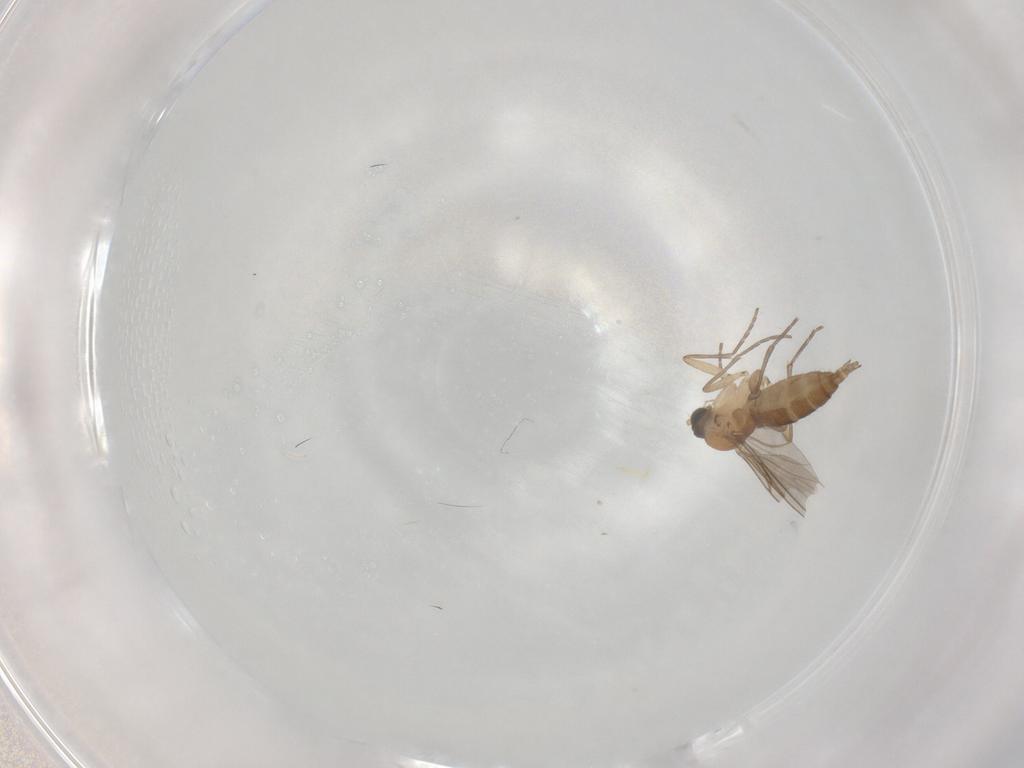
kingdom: Animalia
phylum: Arthropoda
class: Insecta
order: Diptera
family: Sciaridae
